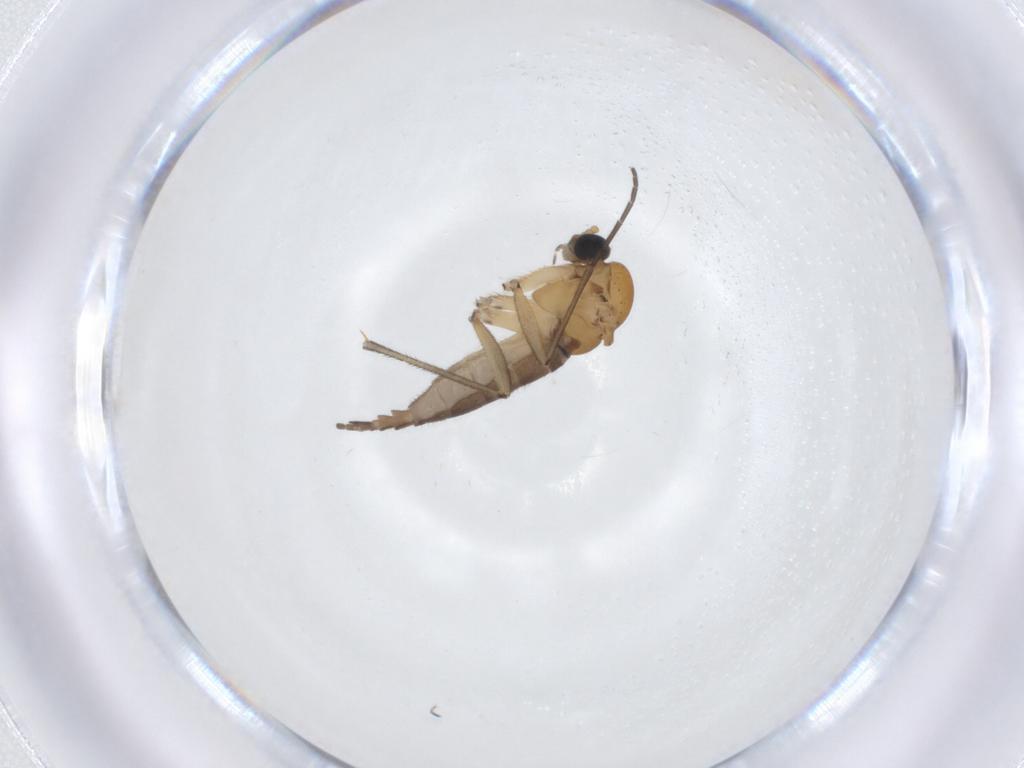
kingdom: Animalia
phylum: Arthropoda
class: Insecta
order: Diptera
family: Sciaridae
